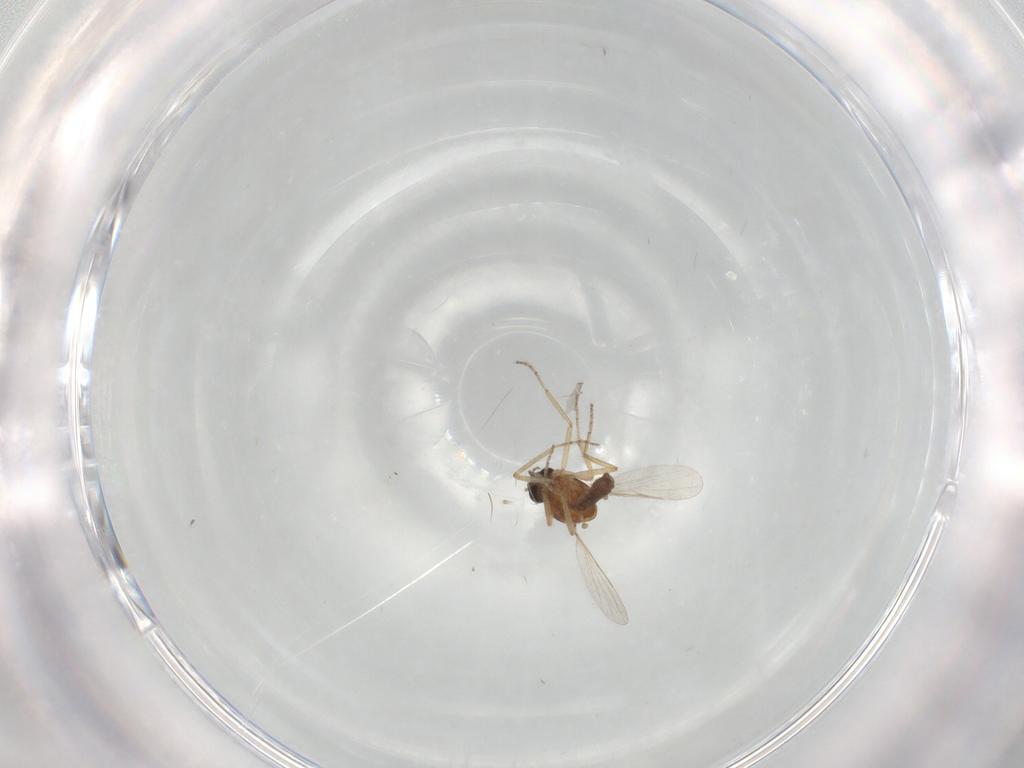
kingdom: Animalia
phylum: Arthropoda
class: Insecta
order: Diptera
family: Ceratopogonidae
